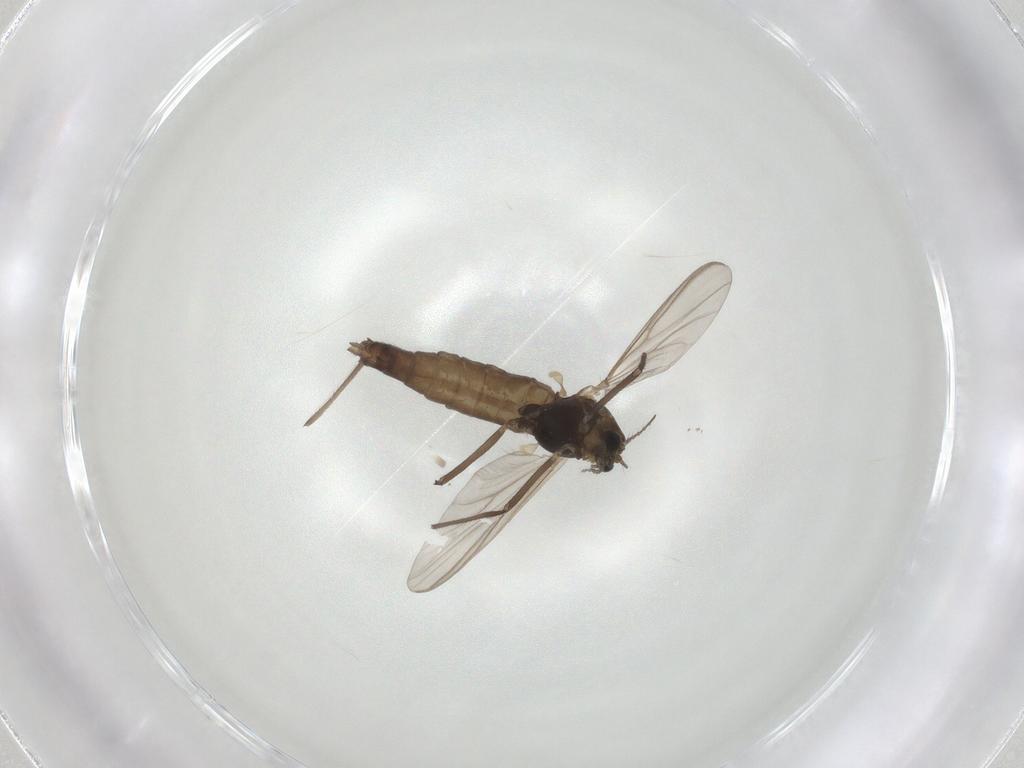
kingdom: Animalia
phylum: Arthropoda
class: Insecta
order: Diptera
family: Chironomidae
